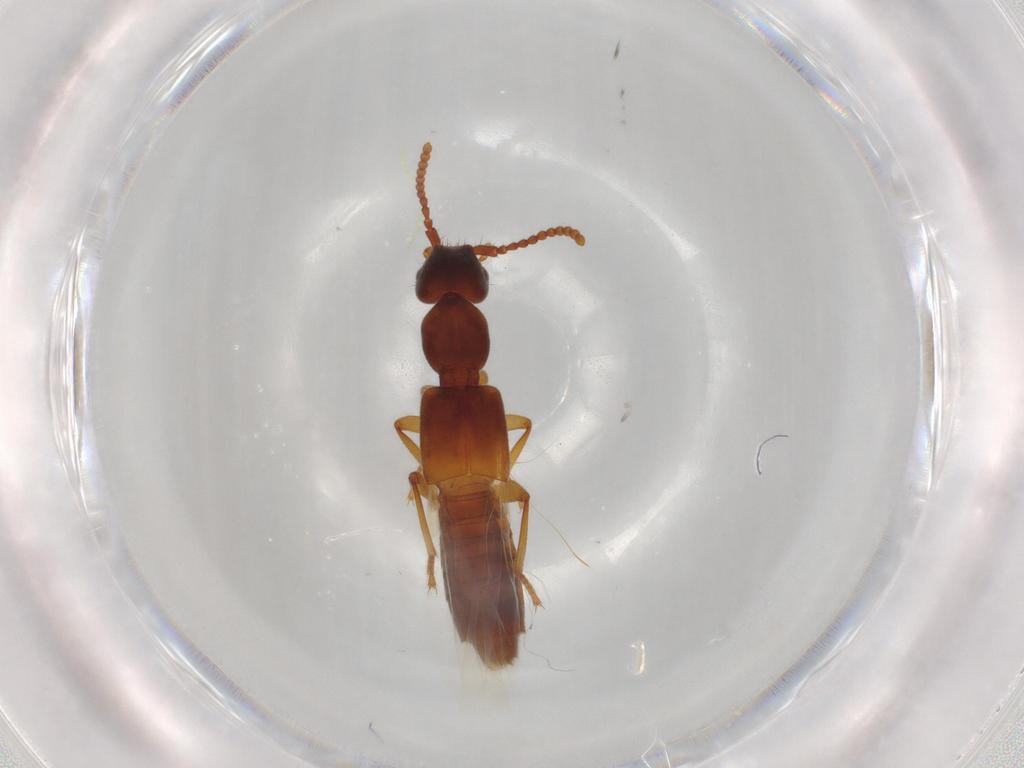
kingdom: Animalia
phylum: Arthropoda
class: Insecta
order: Coleoptera
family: Staphylinidae
